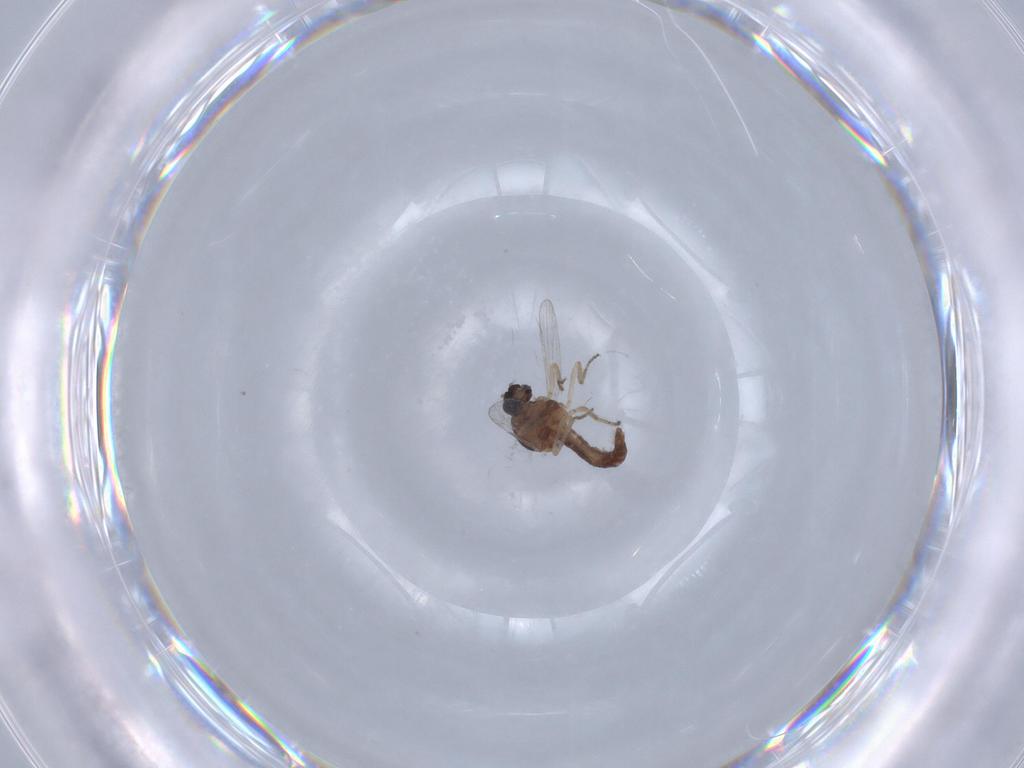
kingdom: Animalia
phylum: Arthropoda
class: Insecta
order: Diptera
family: Ceratopogonidae
